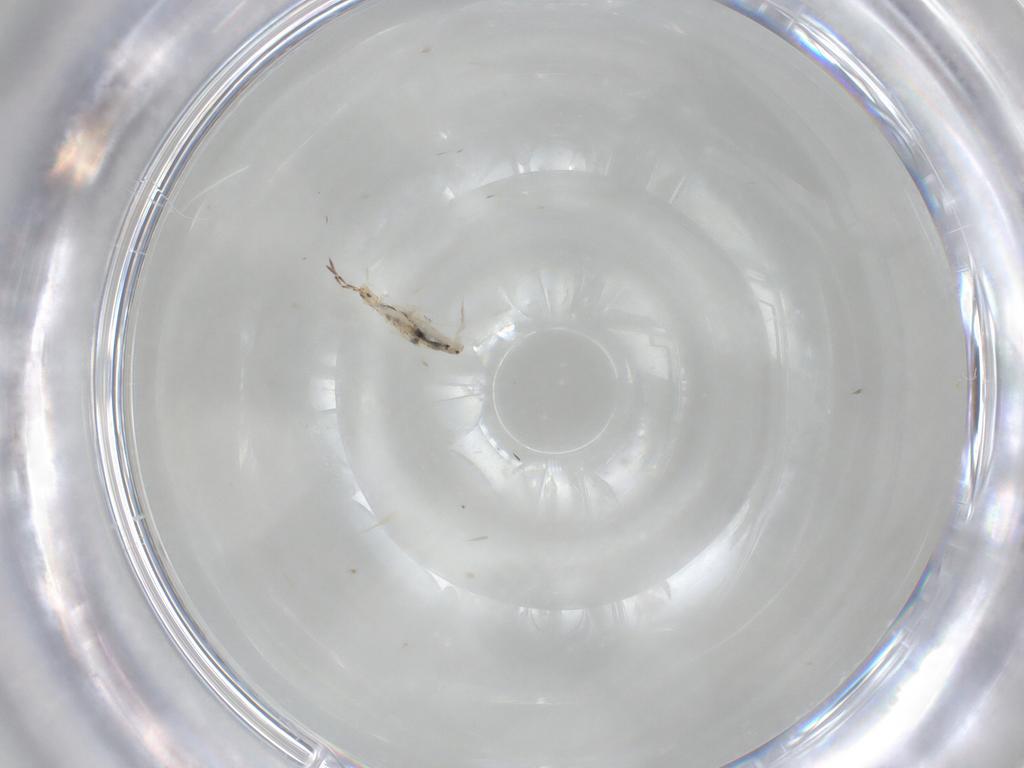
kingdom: Animalia
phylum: Arthropoda
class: Collembola
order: Entomobryomorpha
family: Entomobryidae
